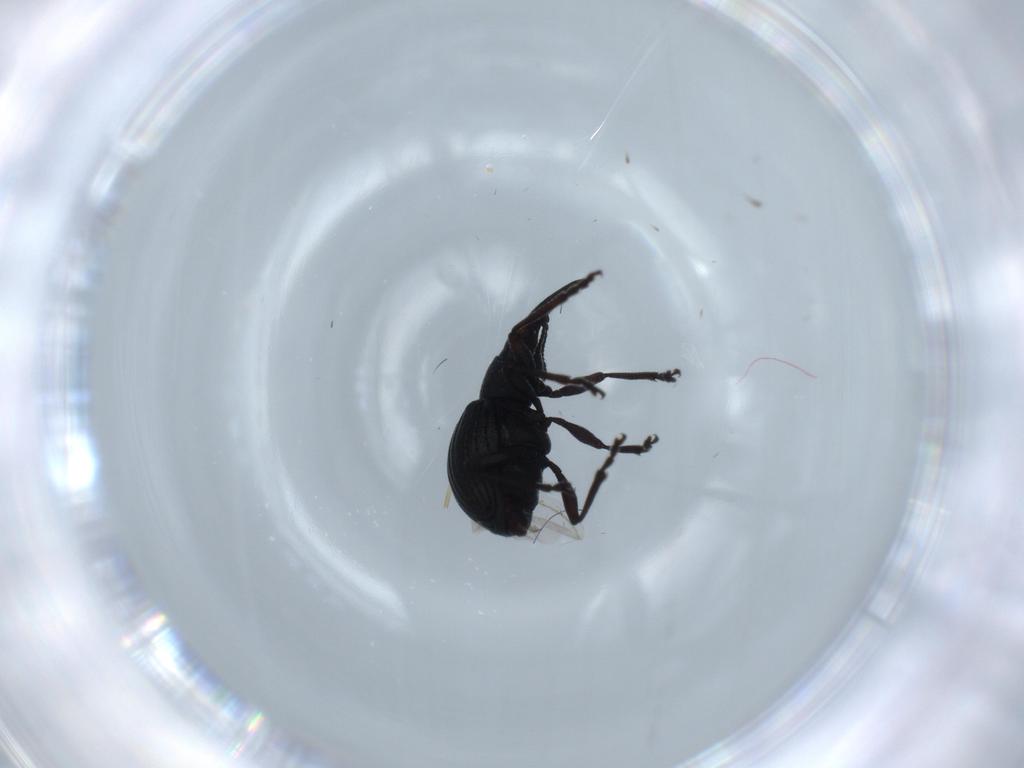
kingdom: Animalia
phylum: Arthropoda
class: Insecta
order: Coleoptera
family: Brentidae
